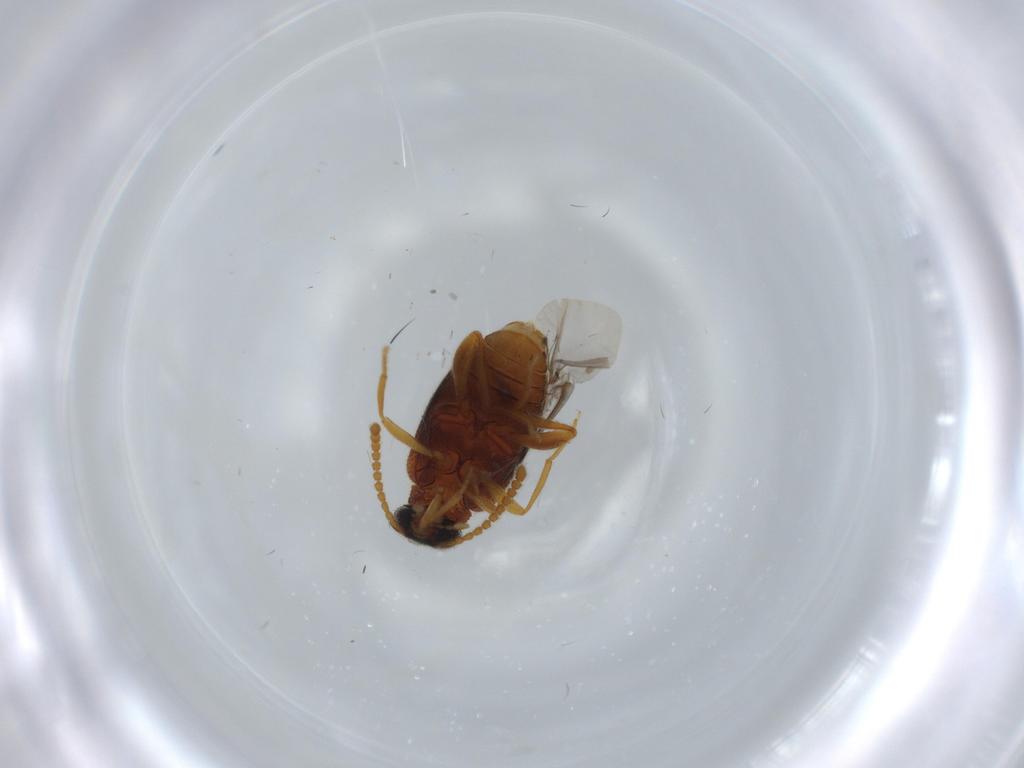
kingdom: Animalia
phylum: Arthropoda
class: Insecta
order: Coleoptera
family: Aderidae
